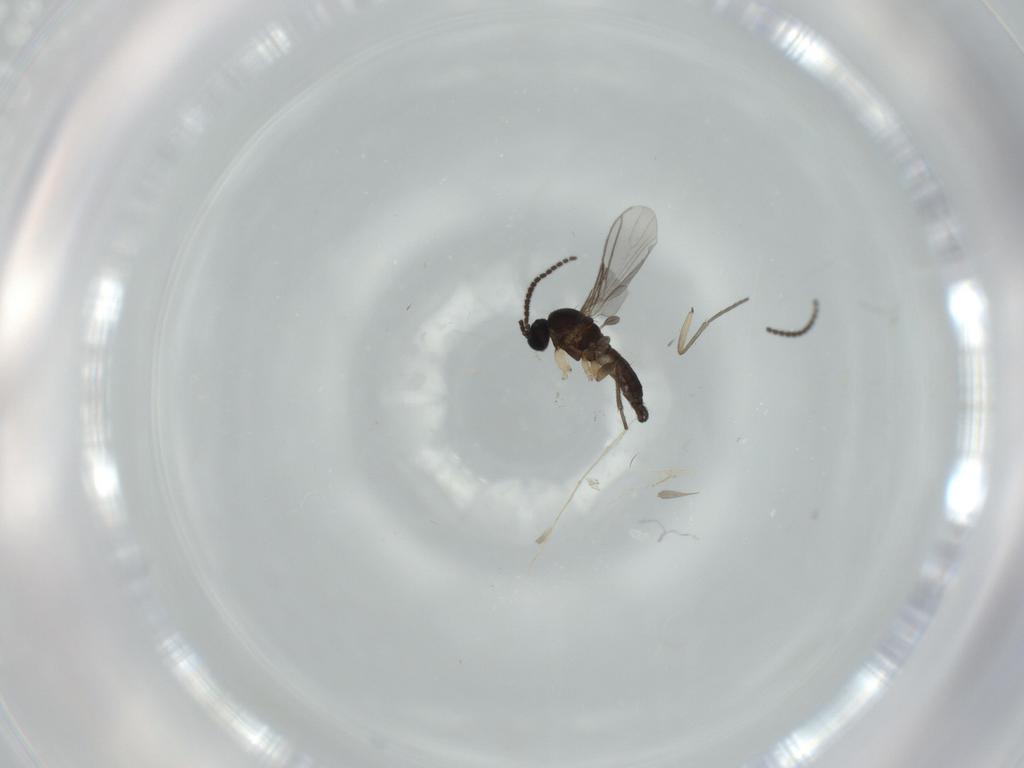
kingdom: Animalia
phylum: Arthropoda
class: Insecta
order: Diptera
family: Sciaridae
